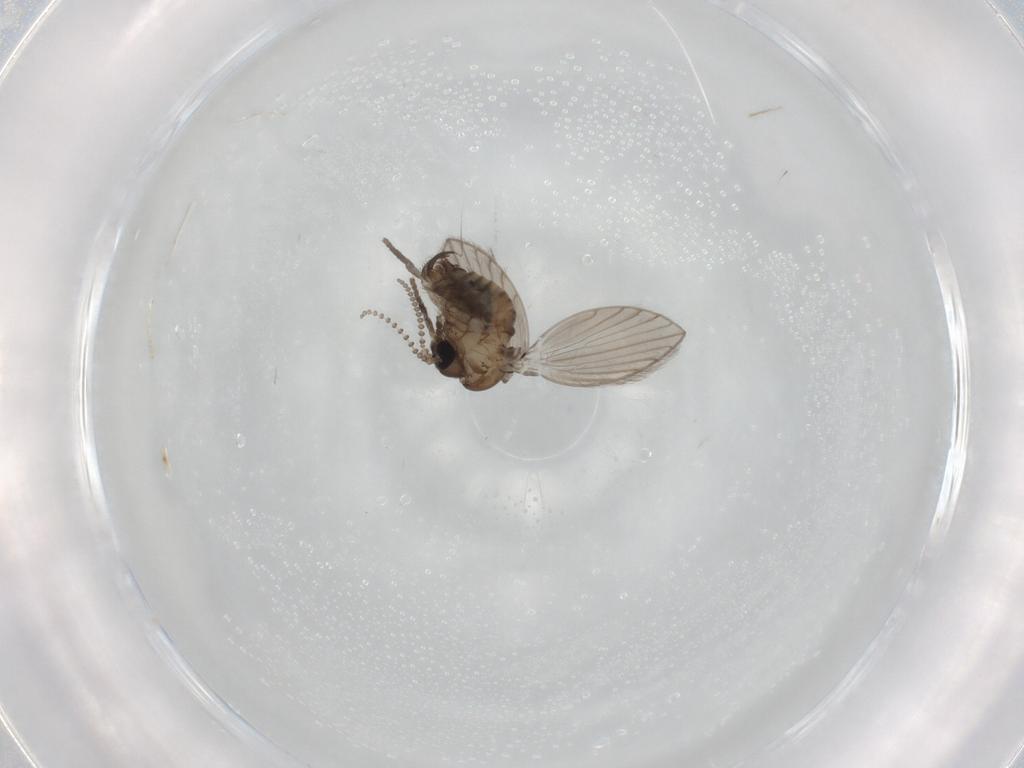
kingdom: Animalia
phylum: Arthropoda
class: Insecta
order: Diptera
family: Psychodidae
